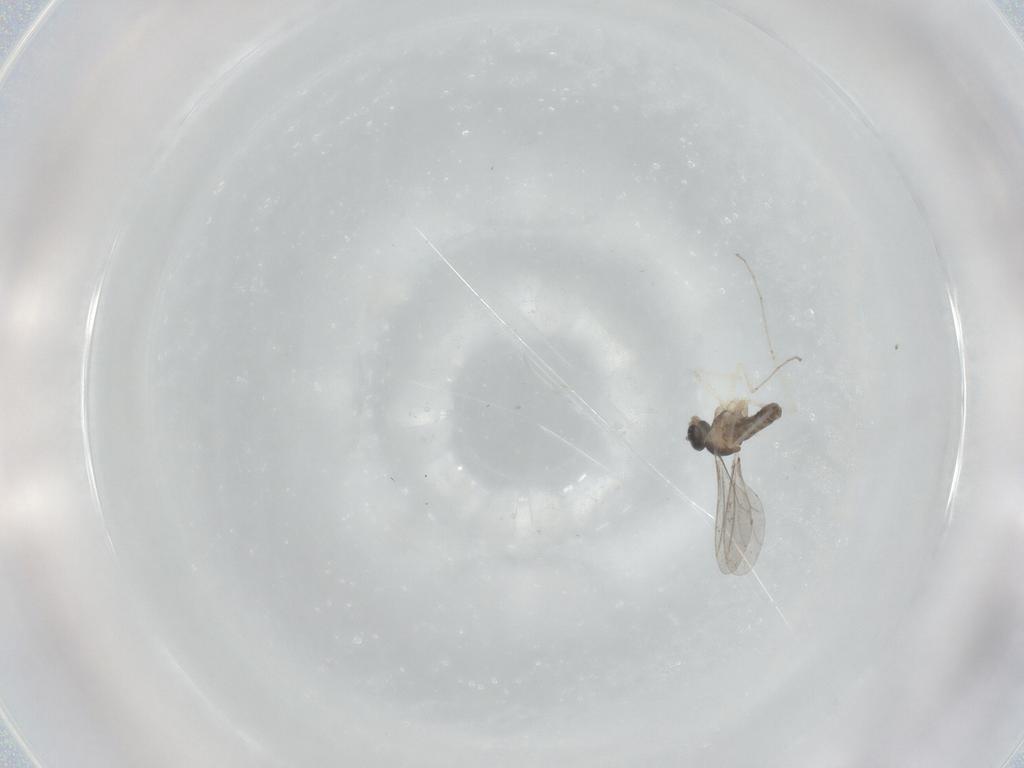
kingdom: Animalia
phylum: Arthropoda
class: Insecta
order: Diptera
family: Cecidomyiidae
